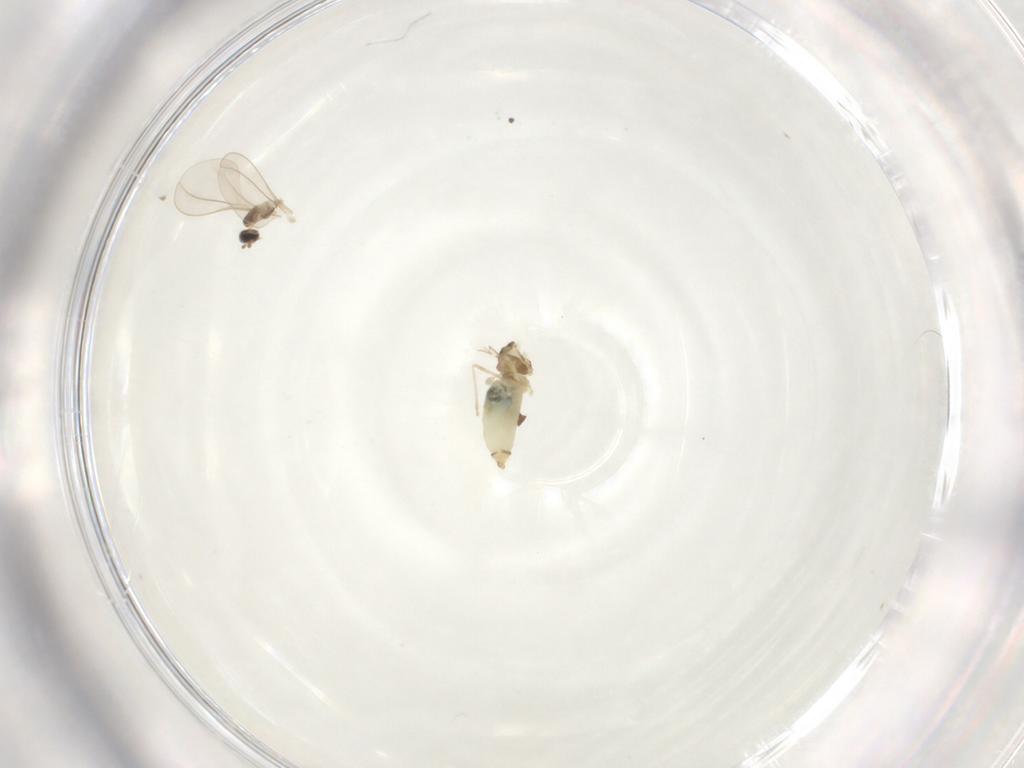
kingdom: Animalia
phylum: Arthropoda
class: Insecta
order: Diptera
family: Cecidomyiidae
